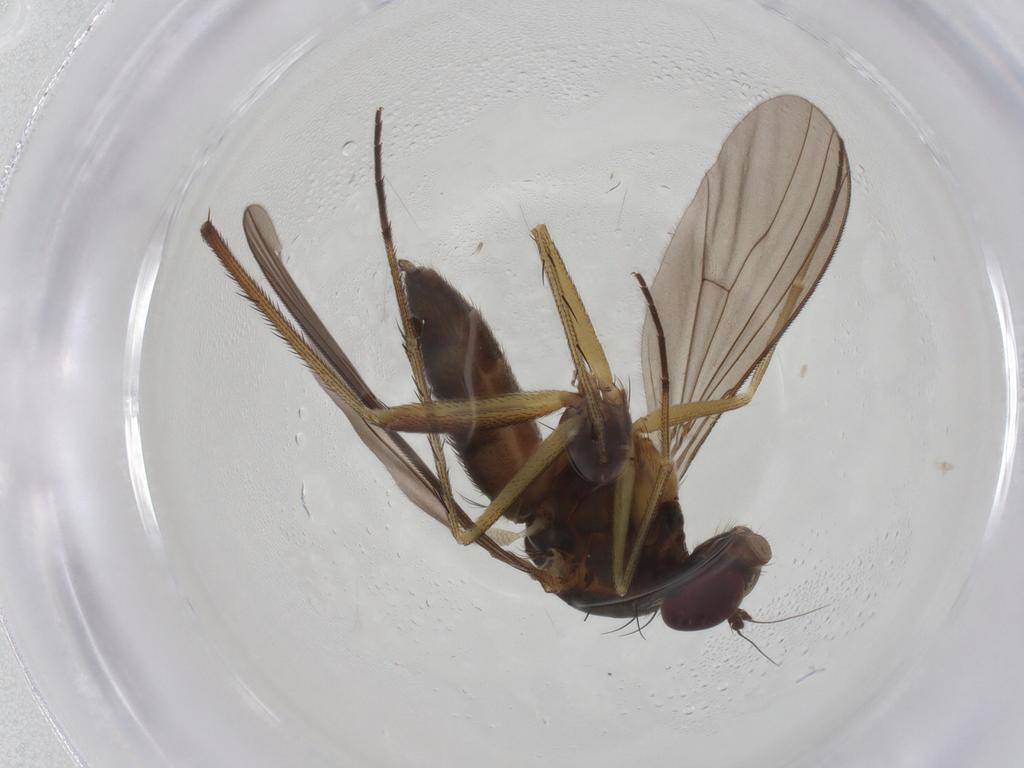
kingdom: Animalia
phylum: Arthropoda
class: Insecta
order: Diptera
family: Dolichopodidae
